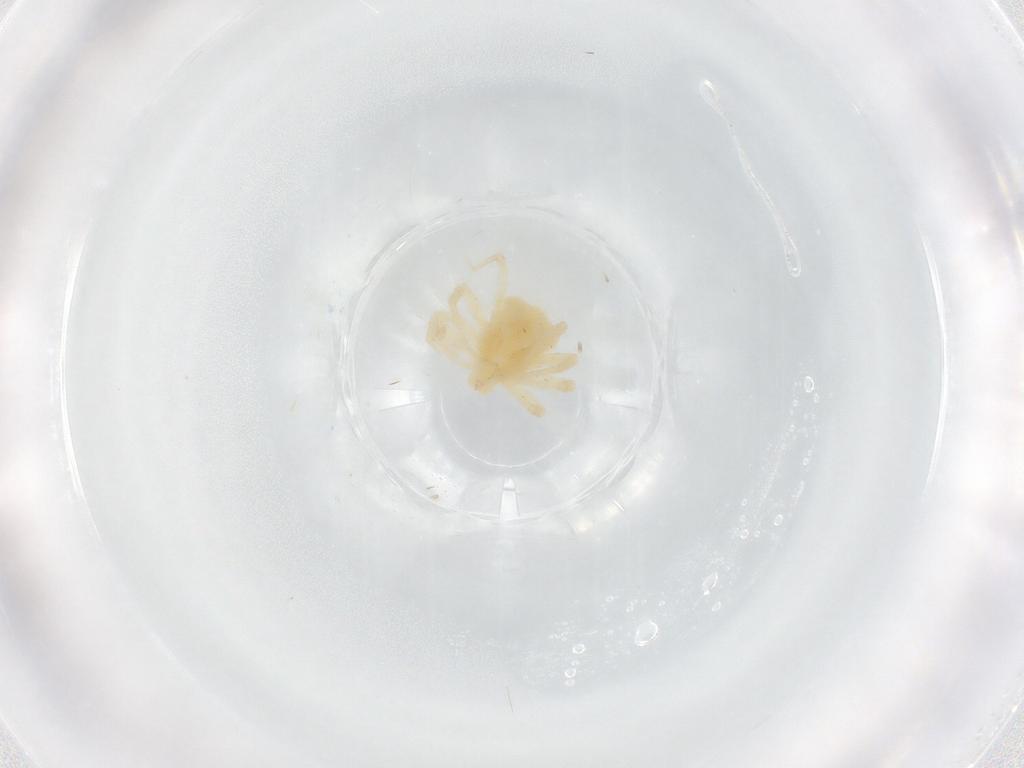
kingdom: Animalia
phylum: Arthropoda
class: Arachnida
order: Trombidiformes
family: Anystidae
